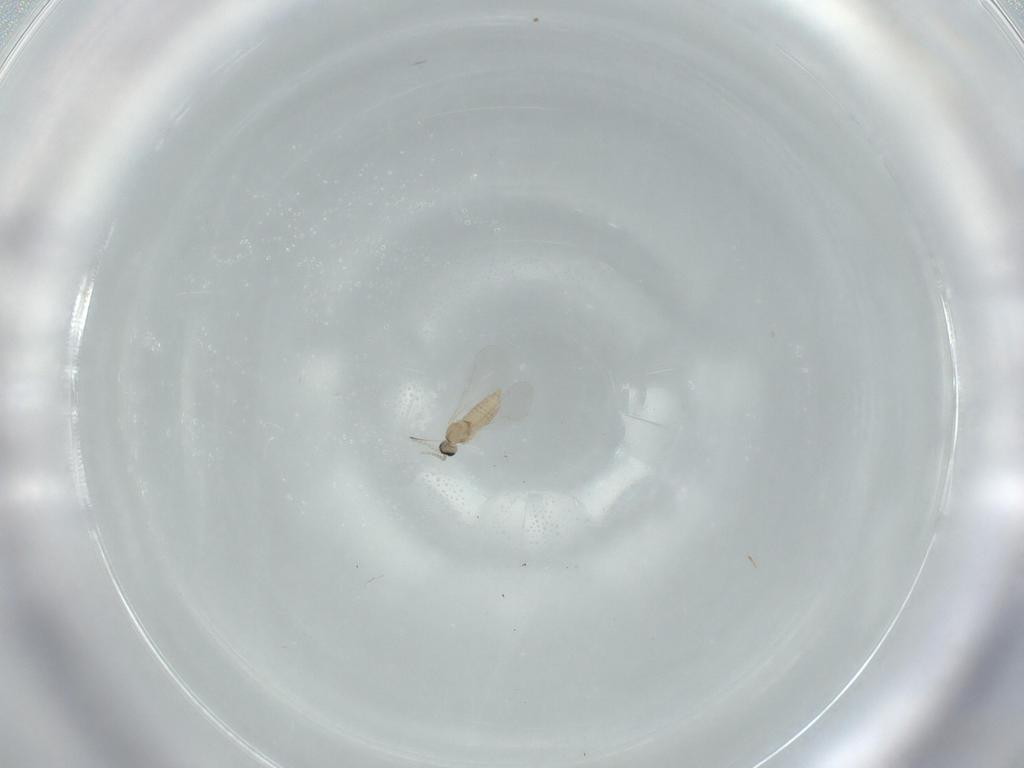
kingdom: Animalia
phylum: Arthropoda
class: Insecta
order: Diptera
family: Cecidomyiidae
